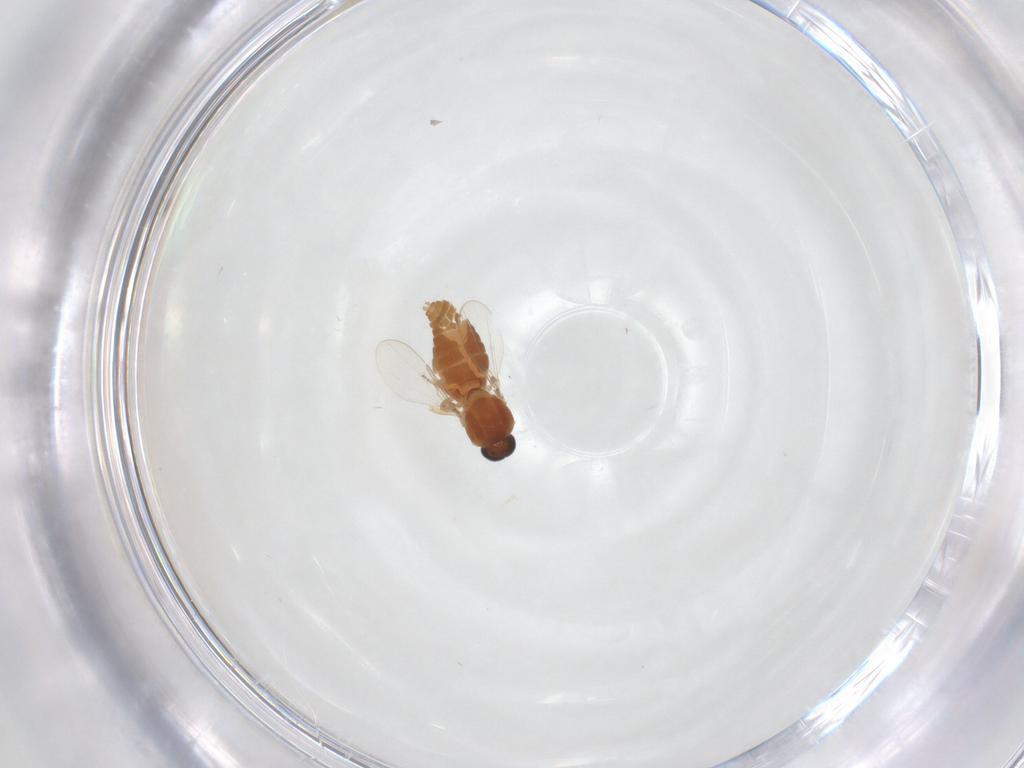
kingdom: Animalia
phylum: Arthropoda
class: Insecta
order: Diptera
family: Ceratopogonidae
